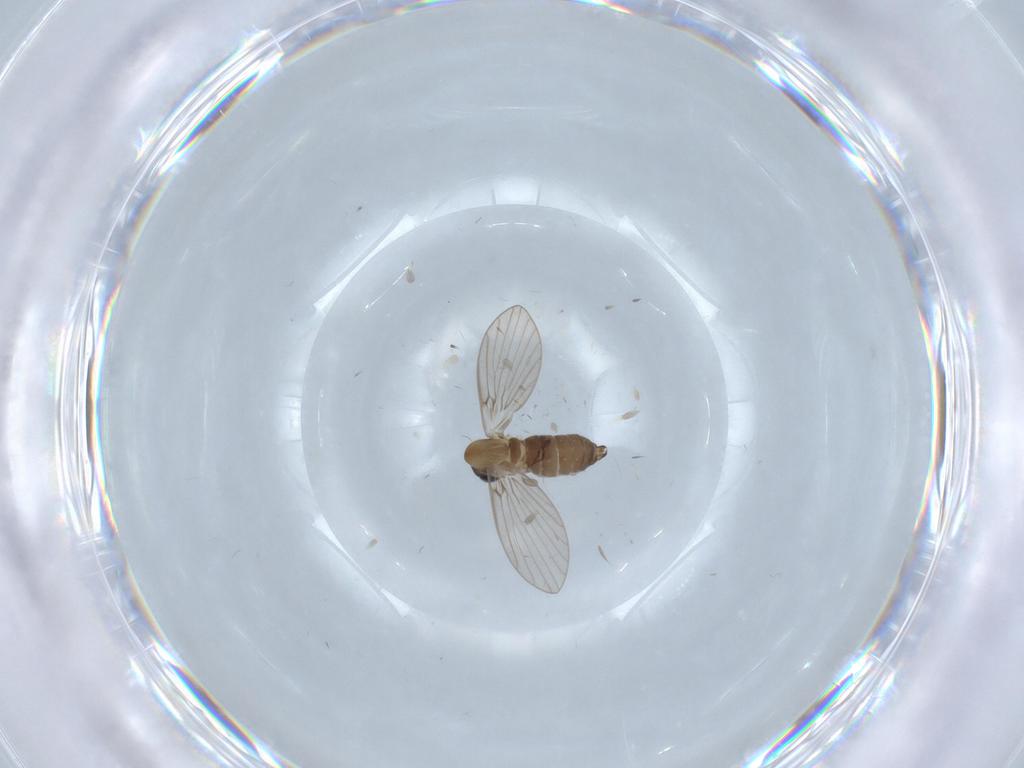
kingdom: Animalia
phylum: Arthropoda
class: Insecta
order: Diptera
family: Psychodidae
